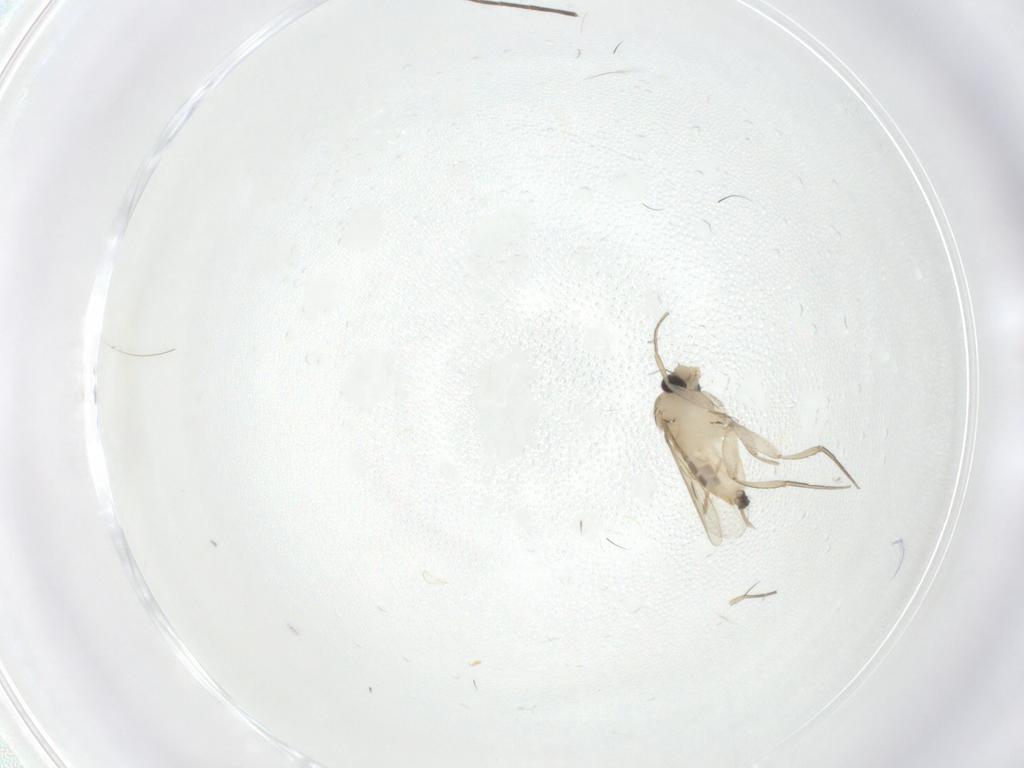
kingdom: Animalia
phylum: Arthropoda
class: Insecta
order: Diptera
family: Phoridae
